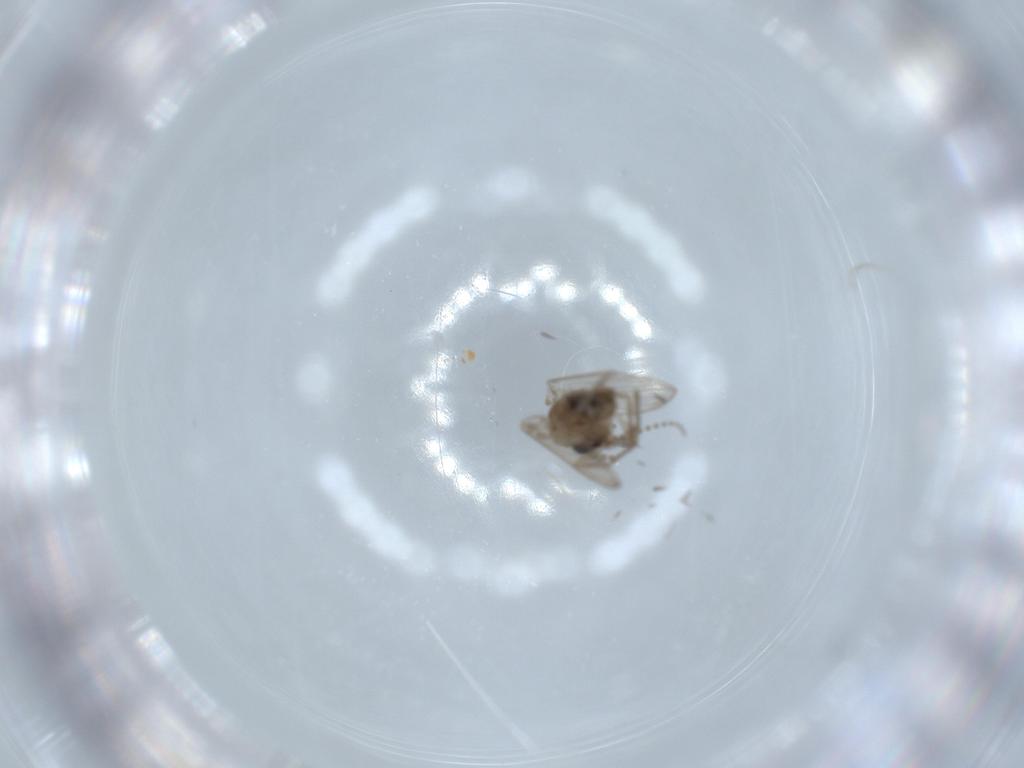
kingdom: Animalia
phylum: Arthropoda
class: Insecta
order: Diptera
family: Psychodidae
